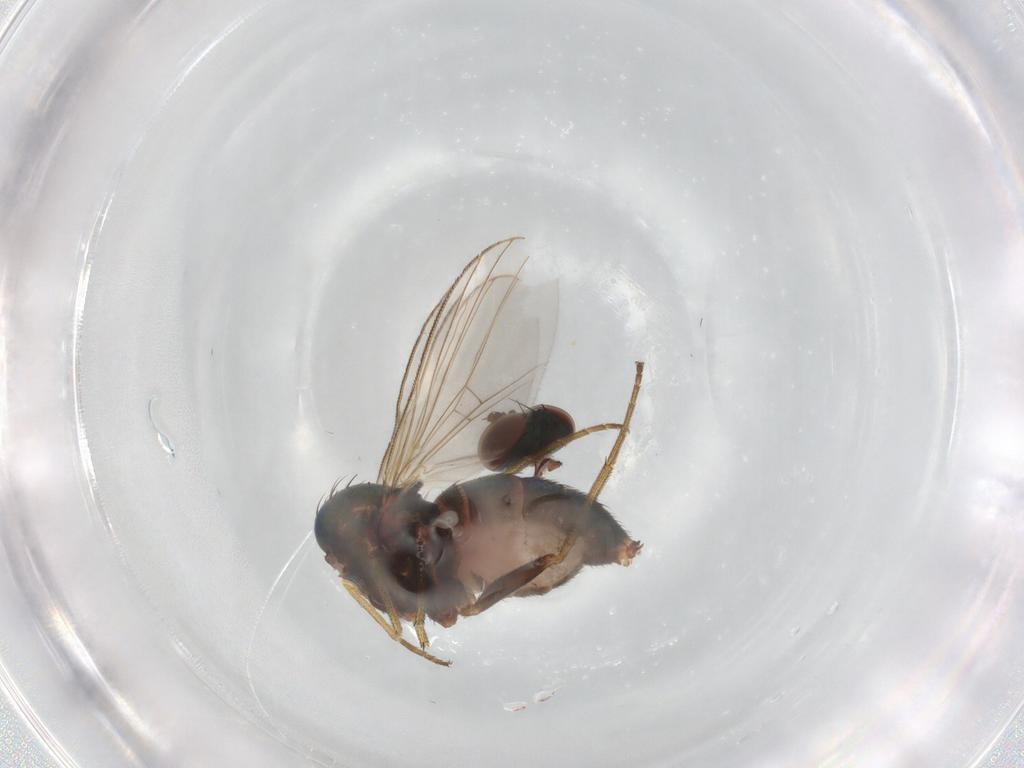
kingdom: Animalia
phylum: Arthropoda
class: Insecta
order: Diptera
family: Dolichopodidae
